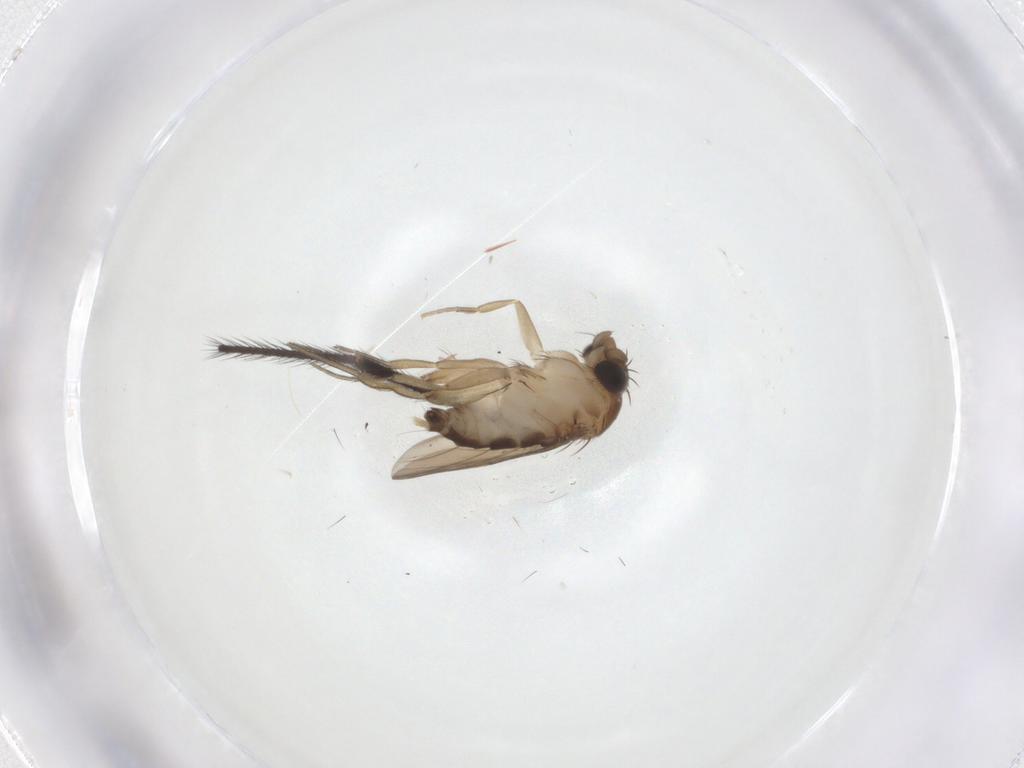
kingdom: Animalia
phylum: Arthropoda
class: Insecta
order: Diptera
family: Phoridae
